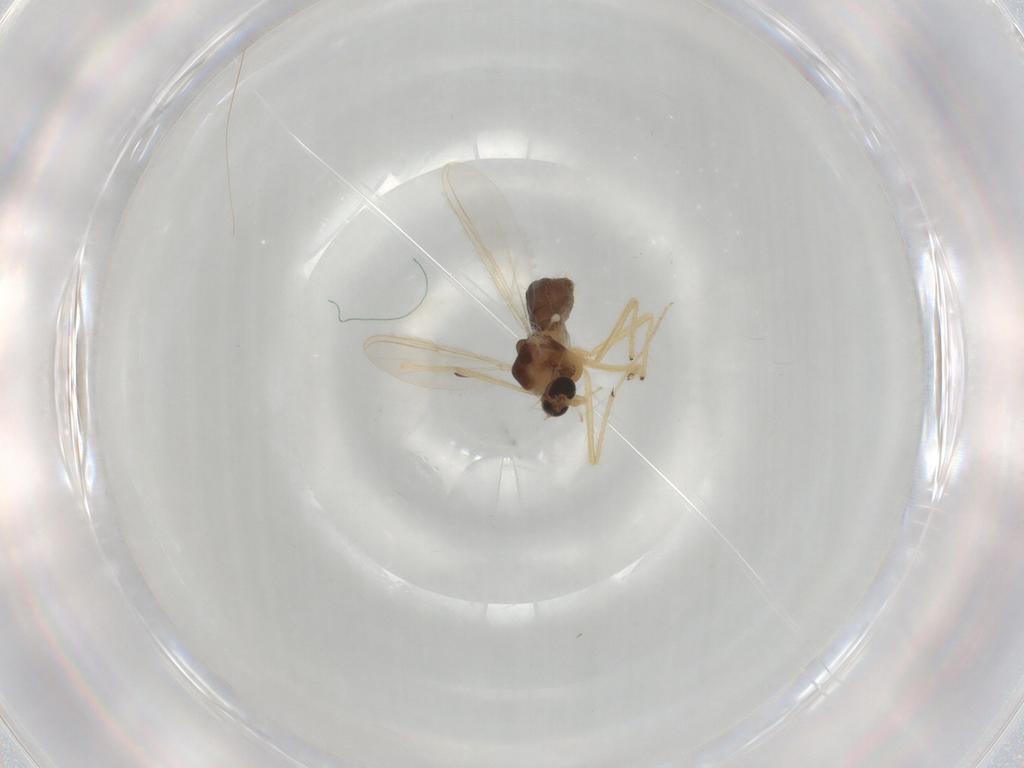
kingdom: Animalia
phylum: Arthropoda
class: Insecta
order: Diptera
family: Chironomidae
